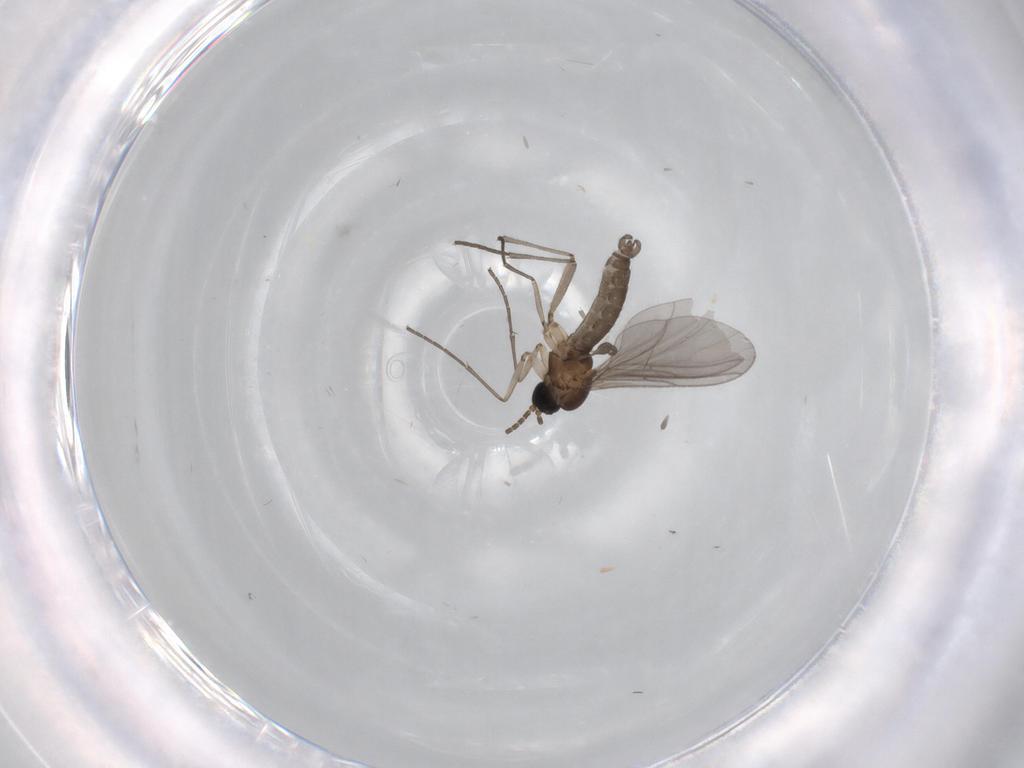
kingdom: Animalia
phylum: Arthropoda
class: Insecta
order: Diptera
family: Sciaridae
